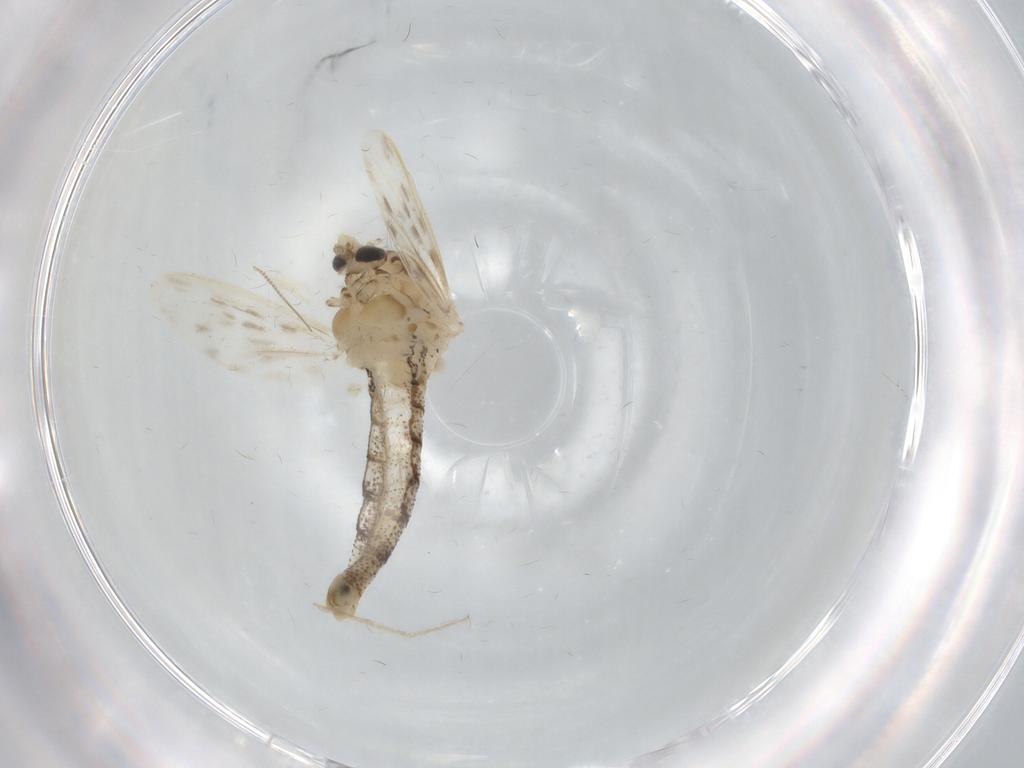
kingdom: Animalia
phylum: Arthropoda
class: Insecta
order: Diptera
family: Chaoboridae
